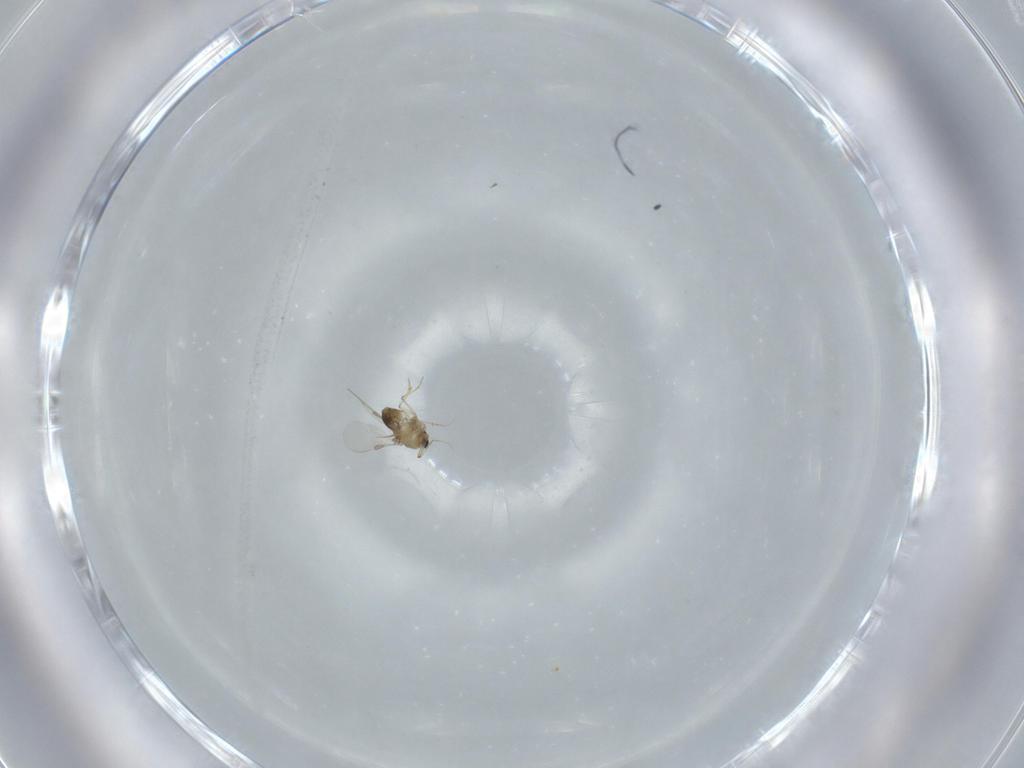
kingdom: Animalia
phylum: Arthropoda
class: Insecta
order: Diptera
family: Chironomidae
